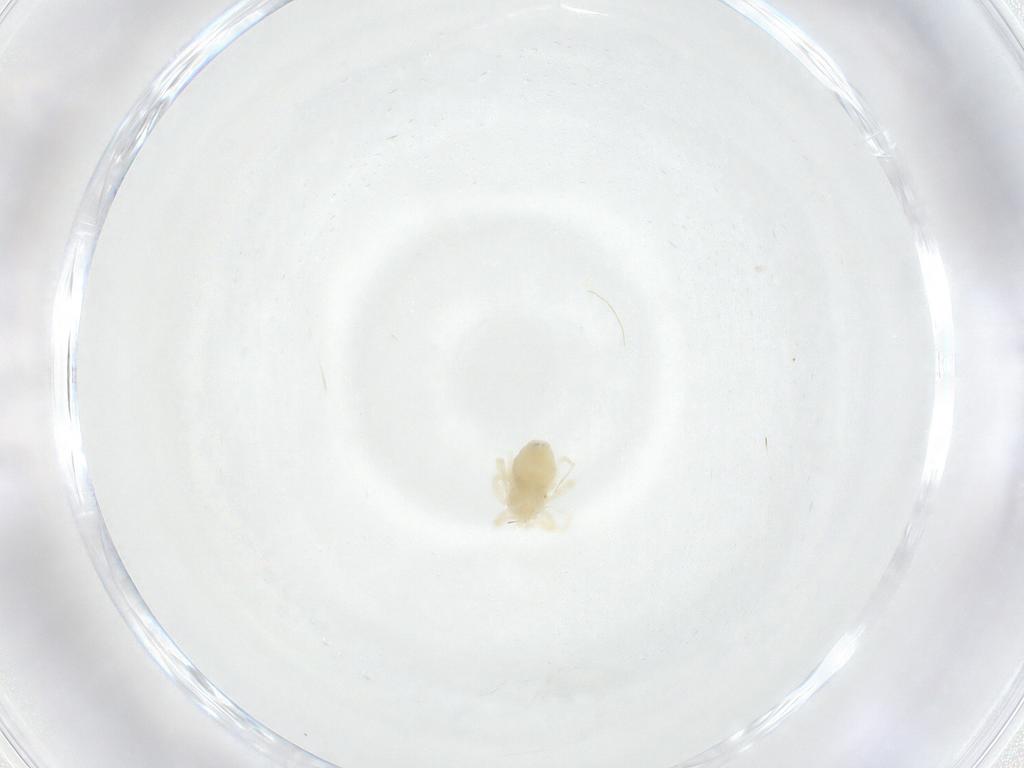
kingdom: Animalia
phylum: Arthropoda
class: Arachnida
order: Trombidiformes
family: Anystidae
